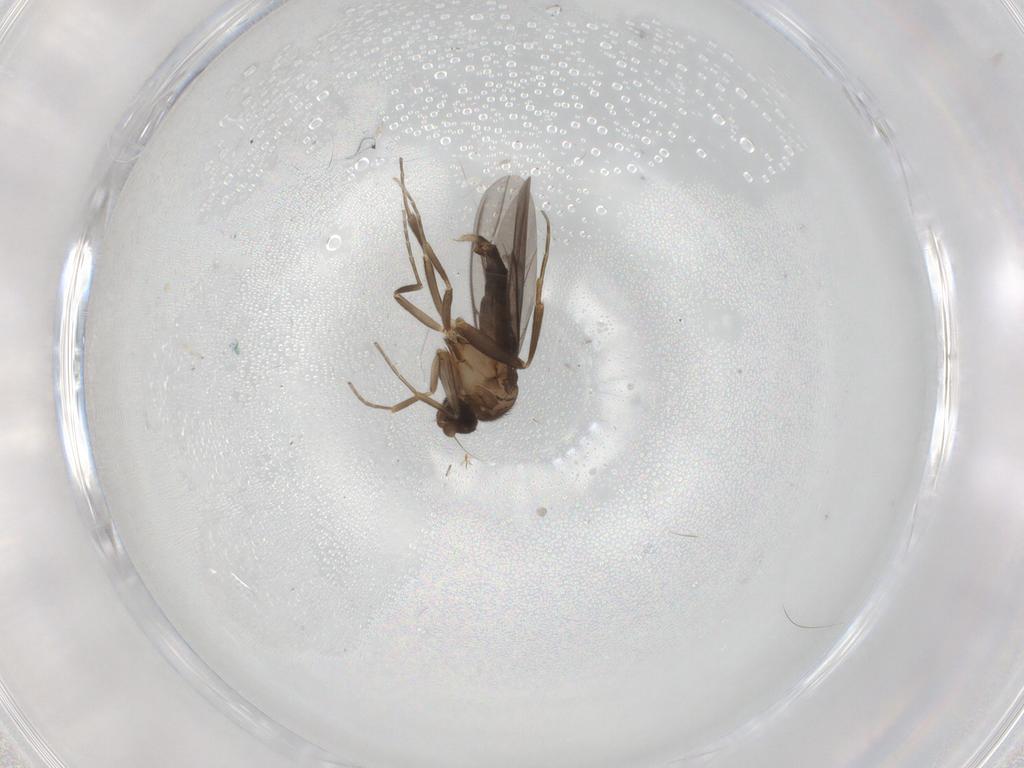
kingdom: Animalia
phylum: Arthropoda
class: Insecta
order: Diptera
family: Phoridae
